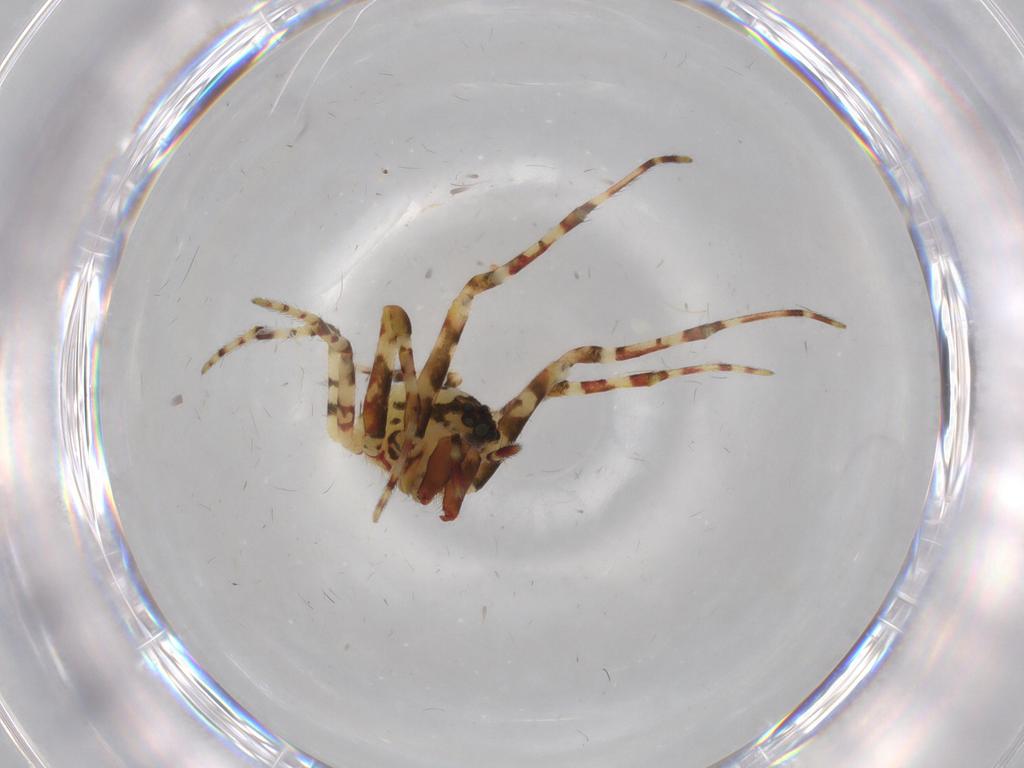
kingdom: Animalia
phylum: Arthropoda
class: Arachnida
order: Araneae
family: Tetragnathidae
